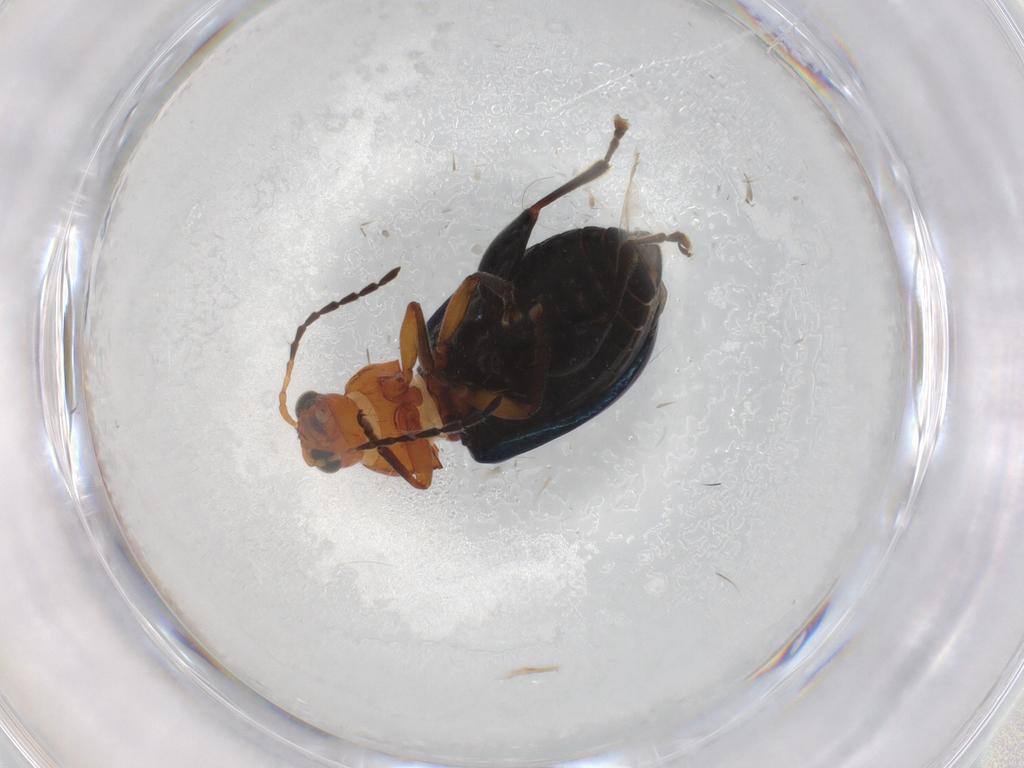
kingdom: Animalia
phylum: Arthropoda
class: Insecta
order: Coleoptera
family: Chrysomelidae
